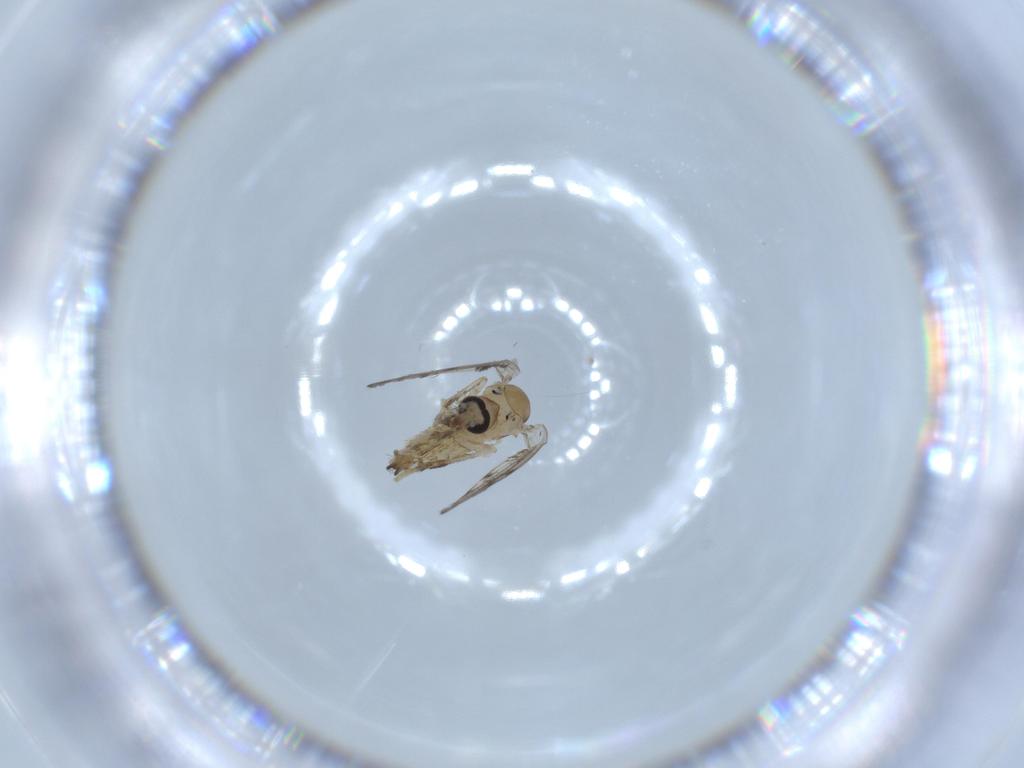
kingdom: Animalia
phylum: Arthropoda
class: Insecta
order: Diptera
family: Psychodidae
